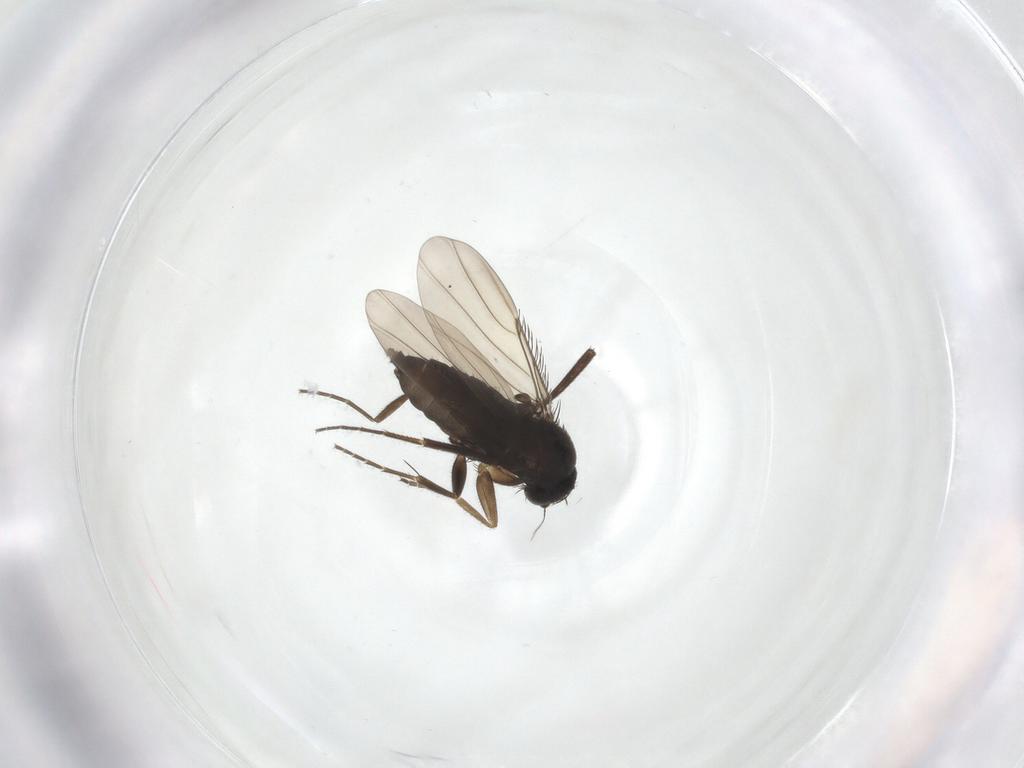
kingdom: Animalia
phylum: Arthropoda
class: Insecta
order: Diptera
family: Phoridae
